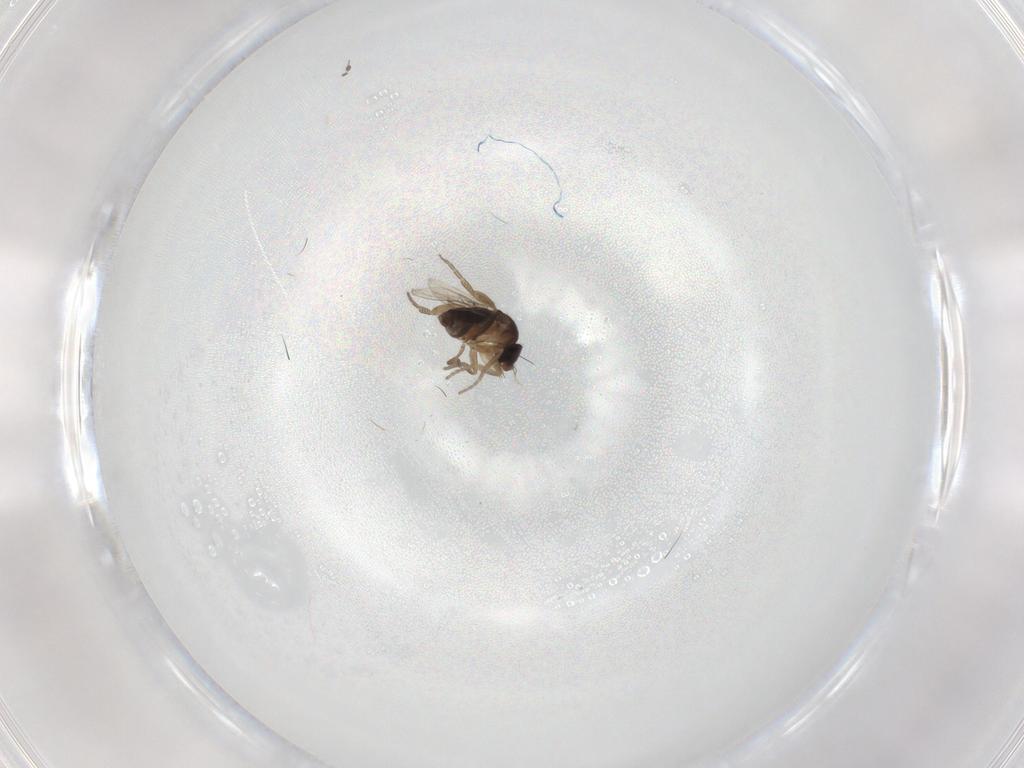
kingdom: Animalia
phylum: Arthropoda
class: Insecta
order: Diptera
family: Cecidomyiidae
